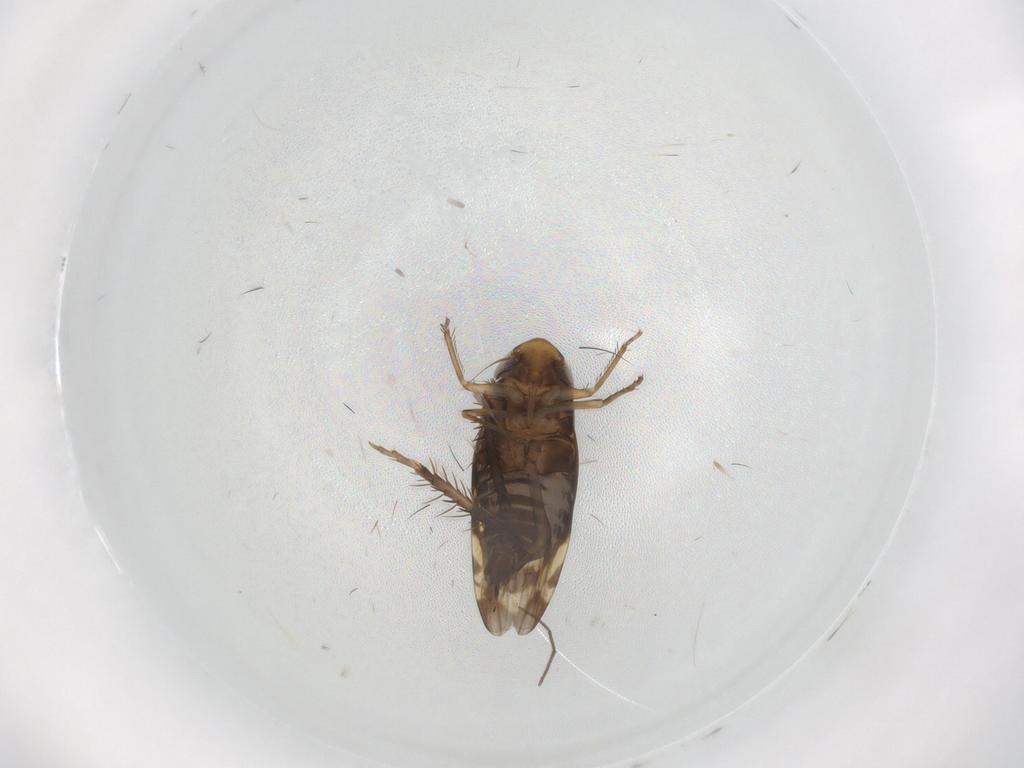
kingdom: Animalia
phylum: Arthropoda
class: Insecta
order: Hemiptera
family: Cicadellidae
